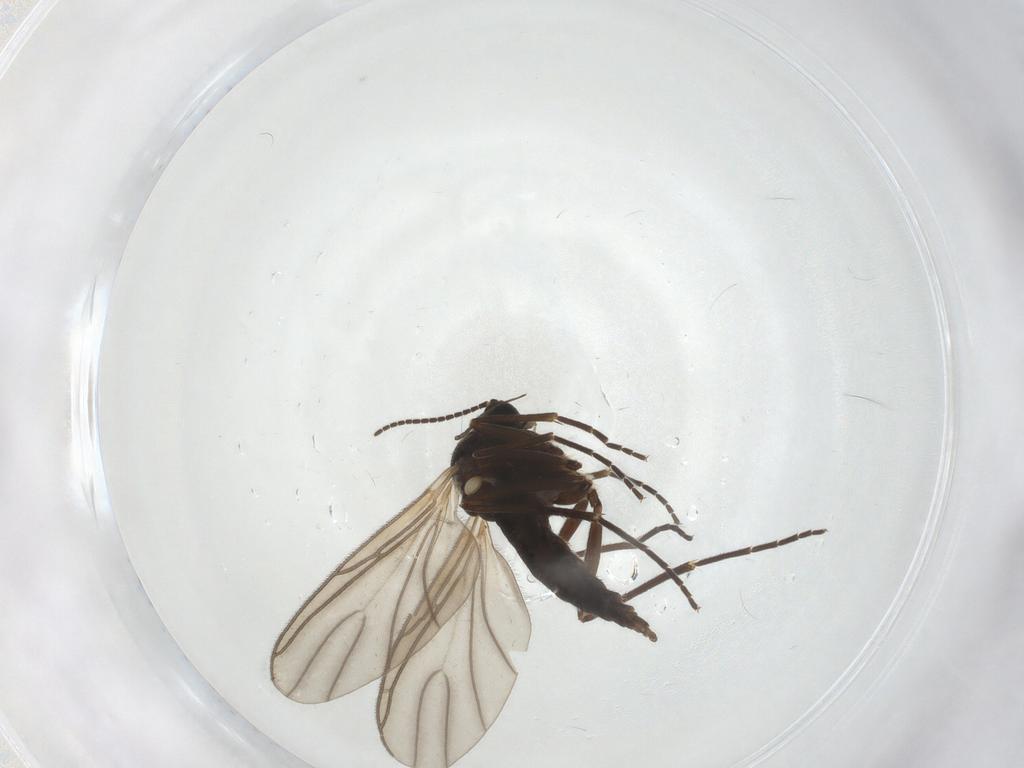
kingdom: Animalia
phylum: Arthropoda
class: Insecta
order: Diptera
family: Sciaridae
